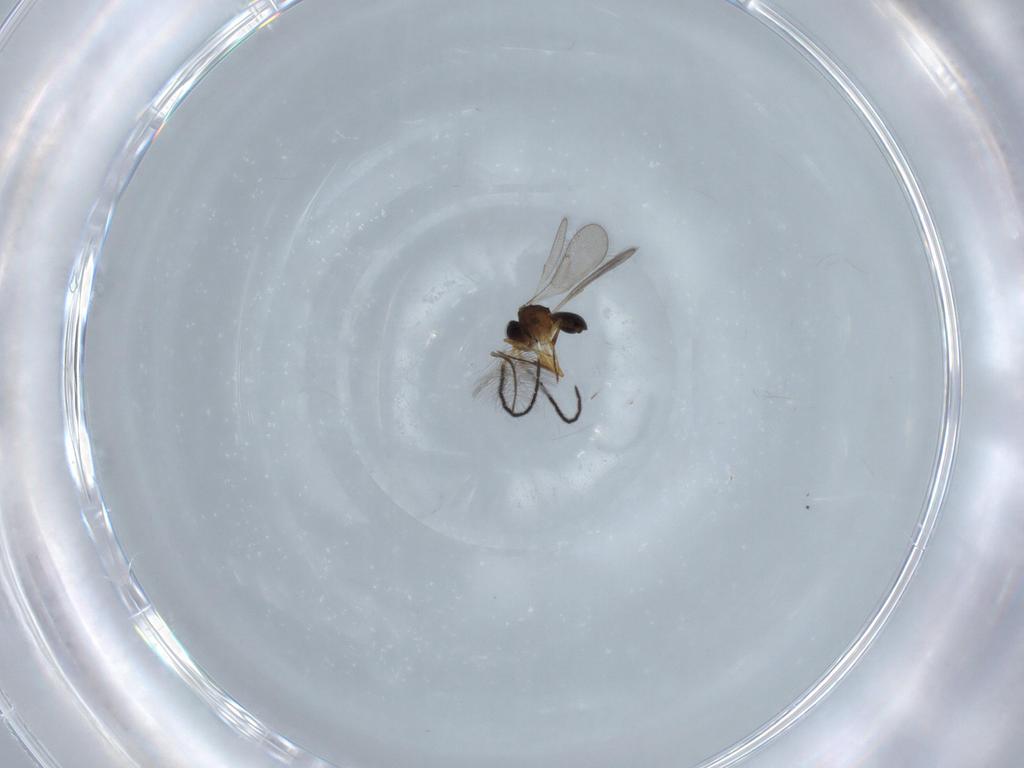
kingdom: Animalia
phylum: Arthropoda
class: Insecta
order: Hymenoptera
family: Scelionidae
